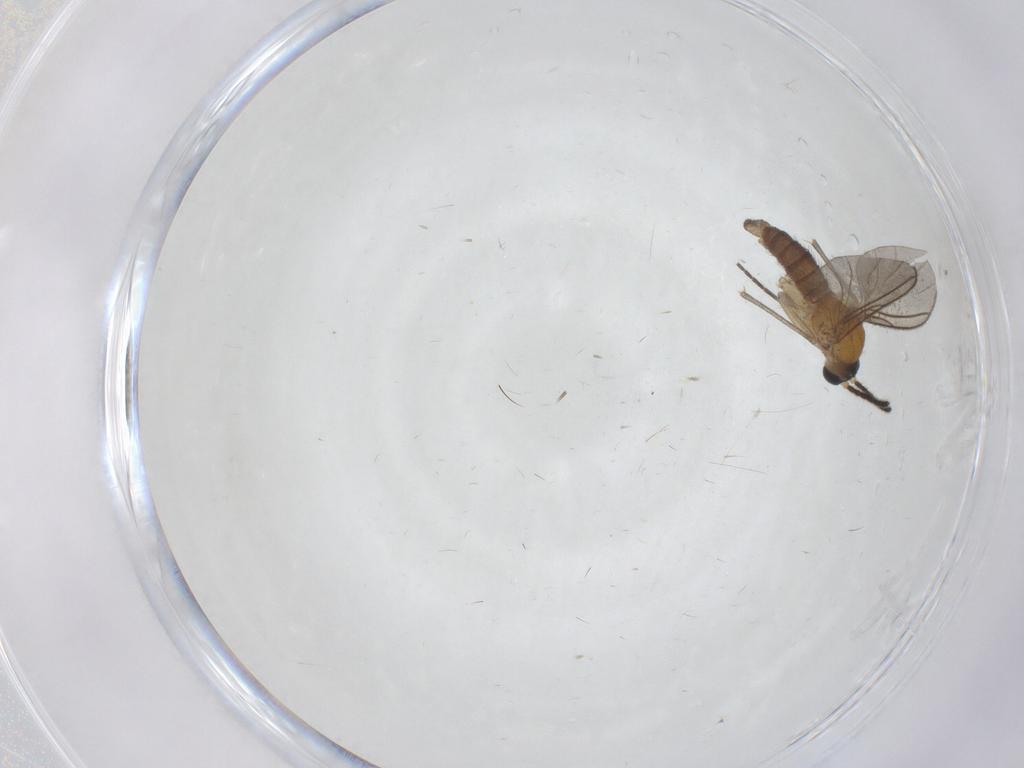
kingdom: Animalia
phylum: Arthropoda
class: Insecta
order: Diptera
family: Sciaridae
